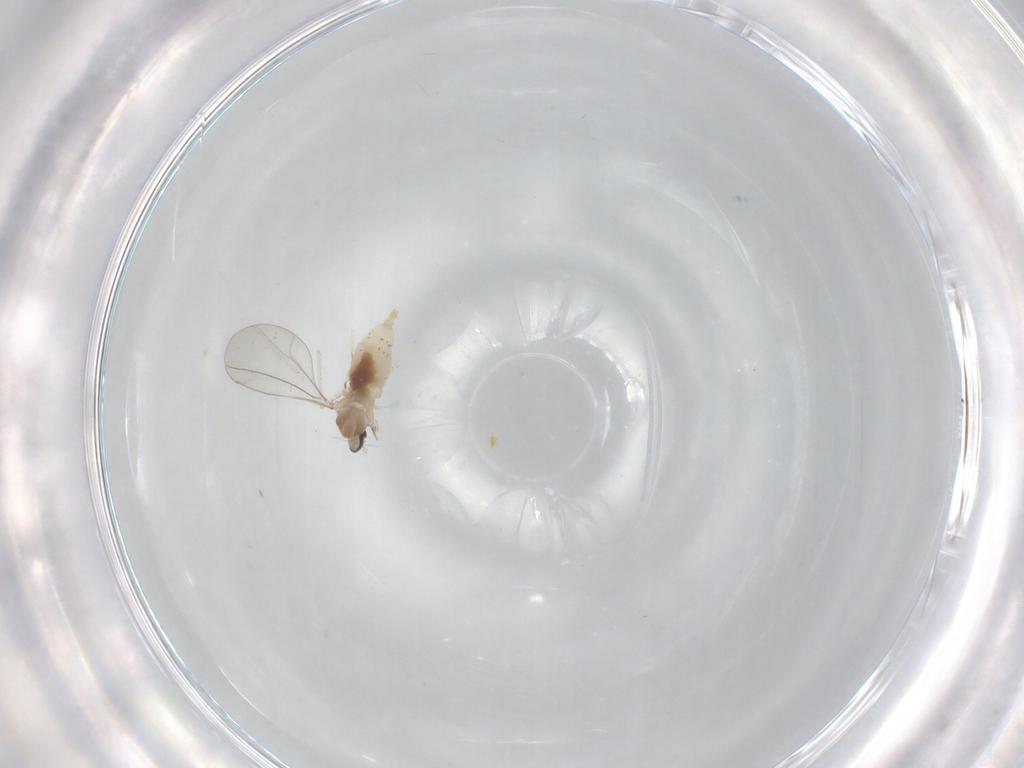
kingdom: Animalia
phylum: Arthropoda
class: Insecta
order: Diptera
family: Cecidomyiidae
